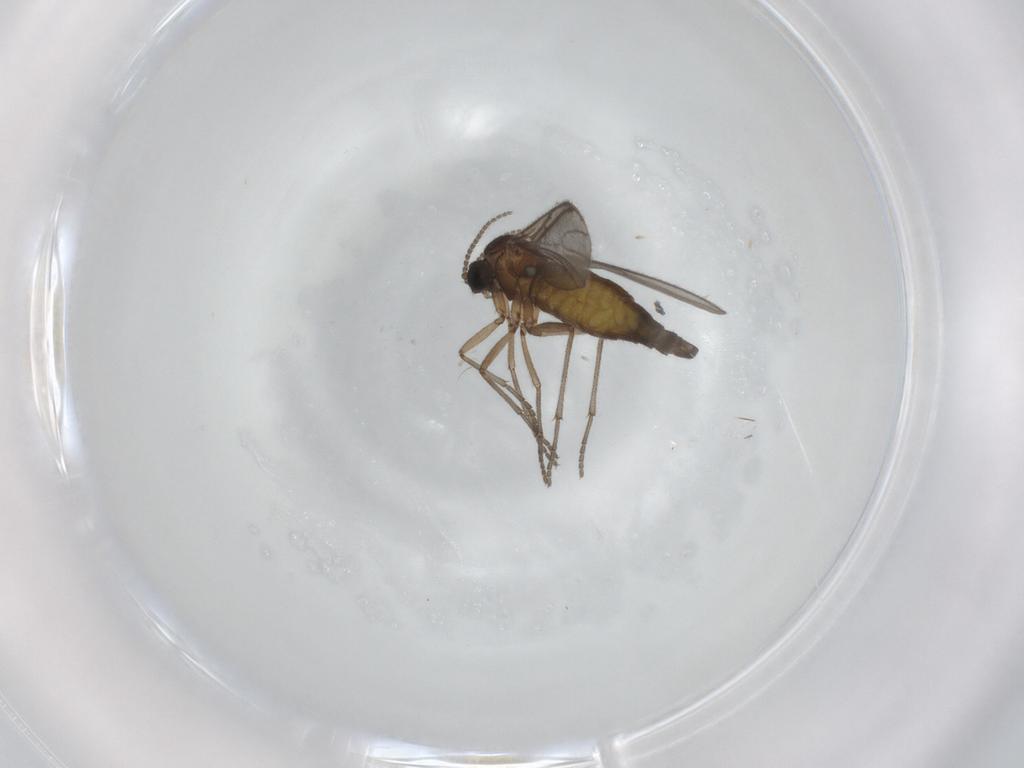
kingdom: Animalia
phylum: Arthropoda
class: Insecta
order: Diptera
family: Sciaridae
